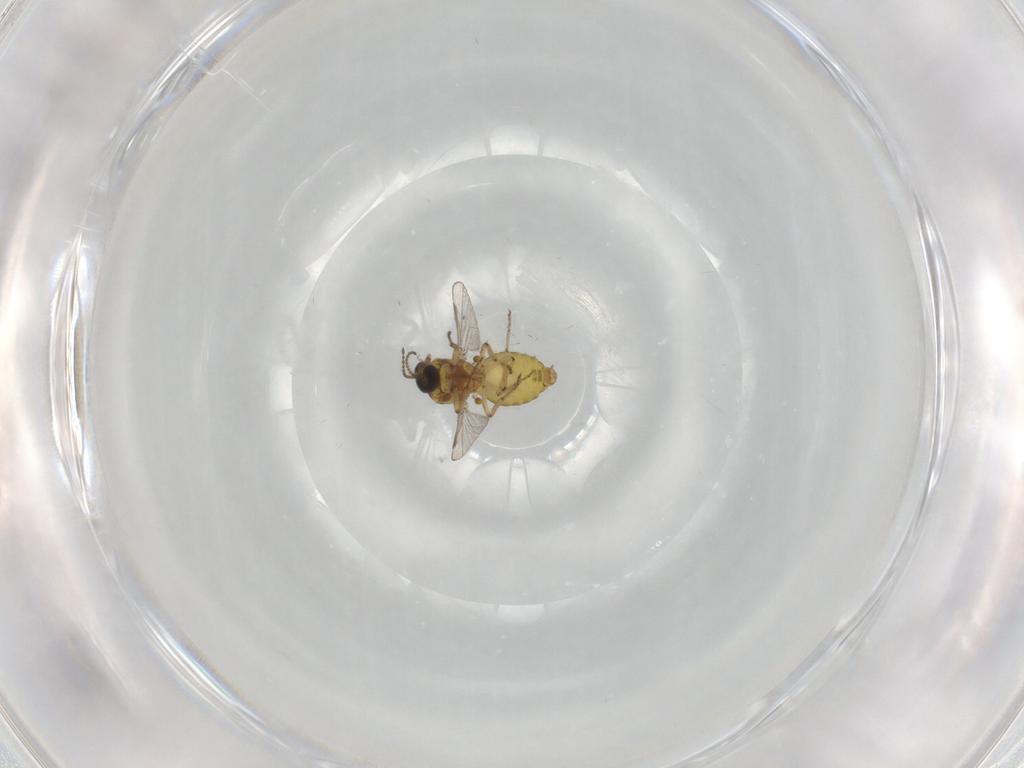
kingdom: Animalia
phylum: Arthropoda
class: Insecta
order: Diptera
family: Ceratopogonidae
